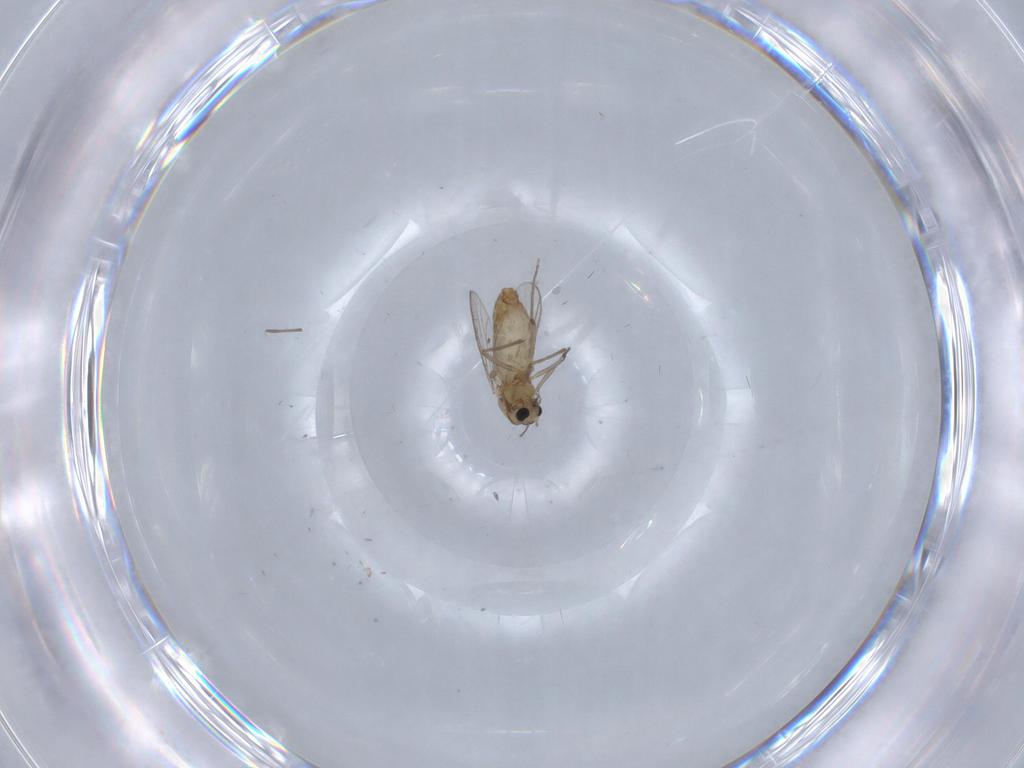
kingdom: Animalia
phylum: Arthropoda
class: Insecta
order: Diptera
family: Chironomidae
